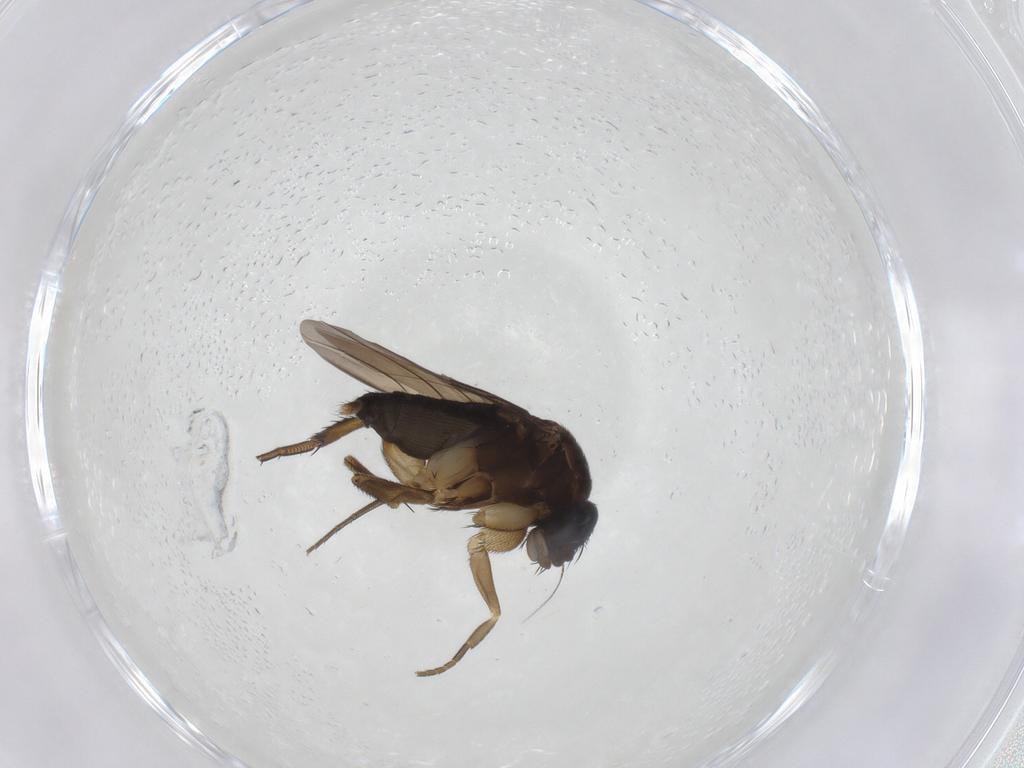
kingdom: Animalia
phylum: Arthropoda
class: Insecta
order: Diptera
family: Phoridae
